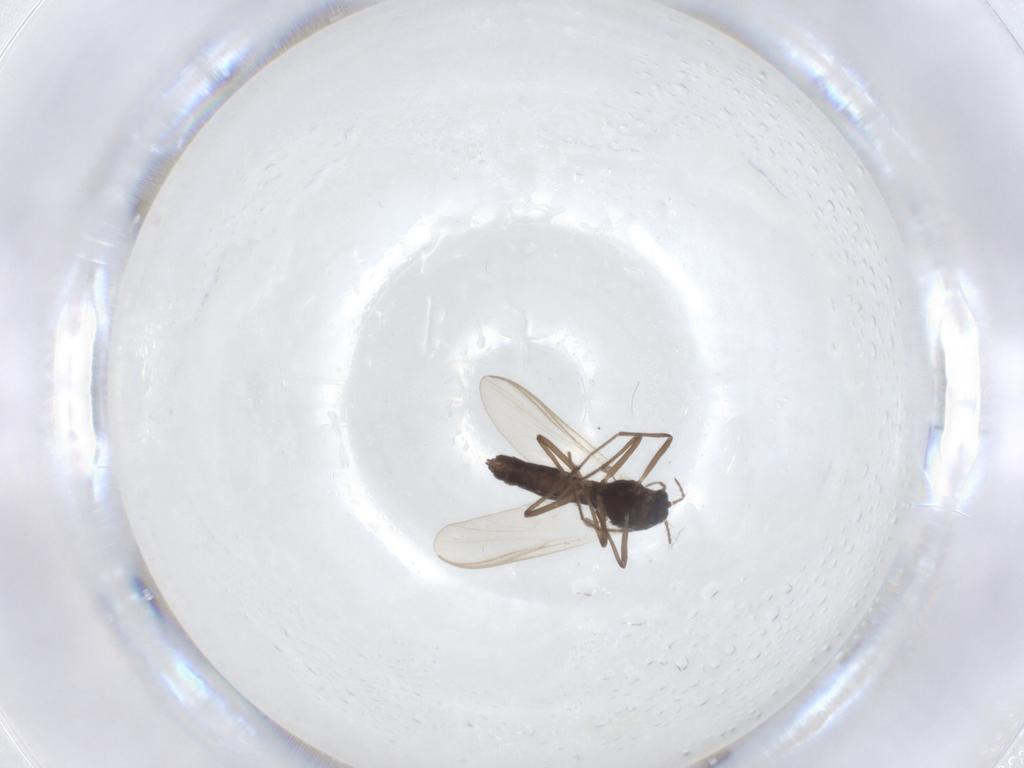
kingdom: Animalia
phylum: Arthropoda
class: Insecta
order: Diptera
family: Chironomidae
